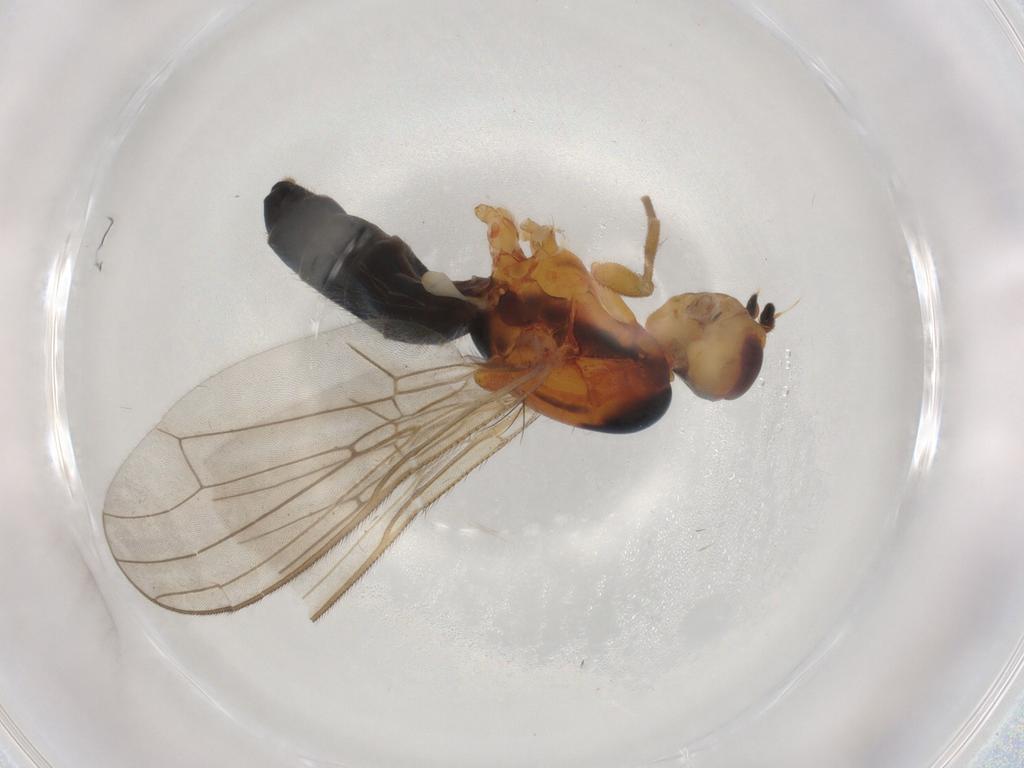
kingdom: Animalia
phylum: Arthropoda
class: Insecta
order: Diptera
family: Psilidae
